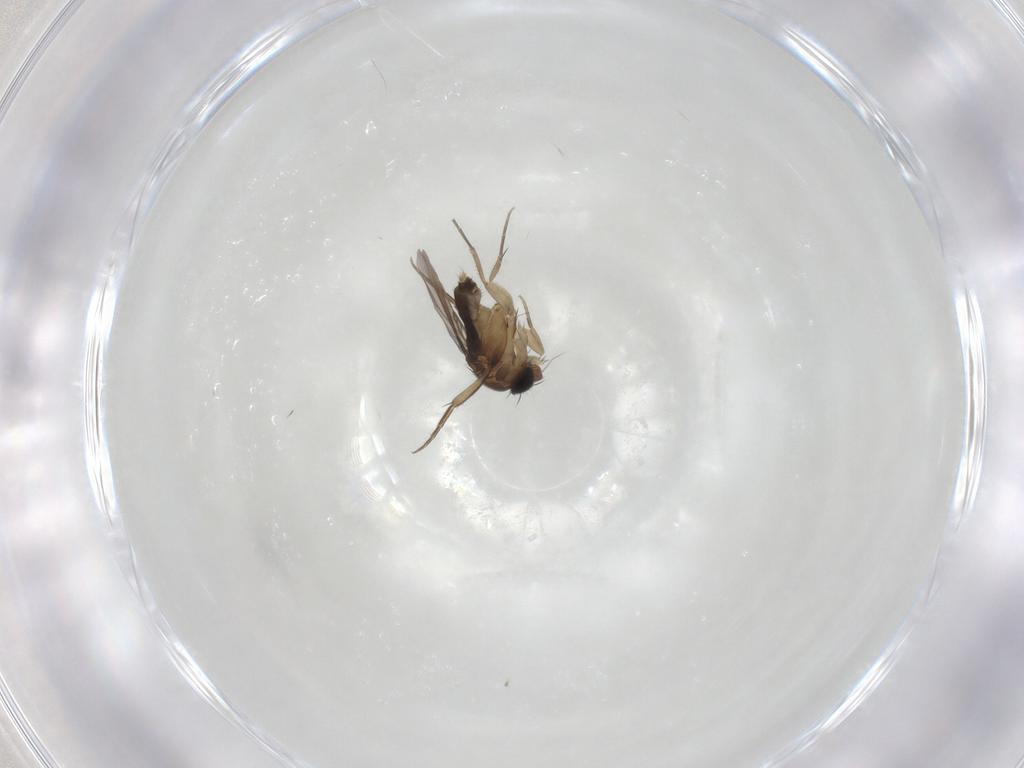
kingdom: Animalia
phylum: Arthropoda
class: Insecta
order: Diptera
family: Phoridae
